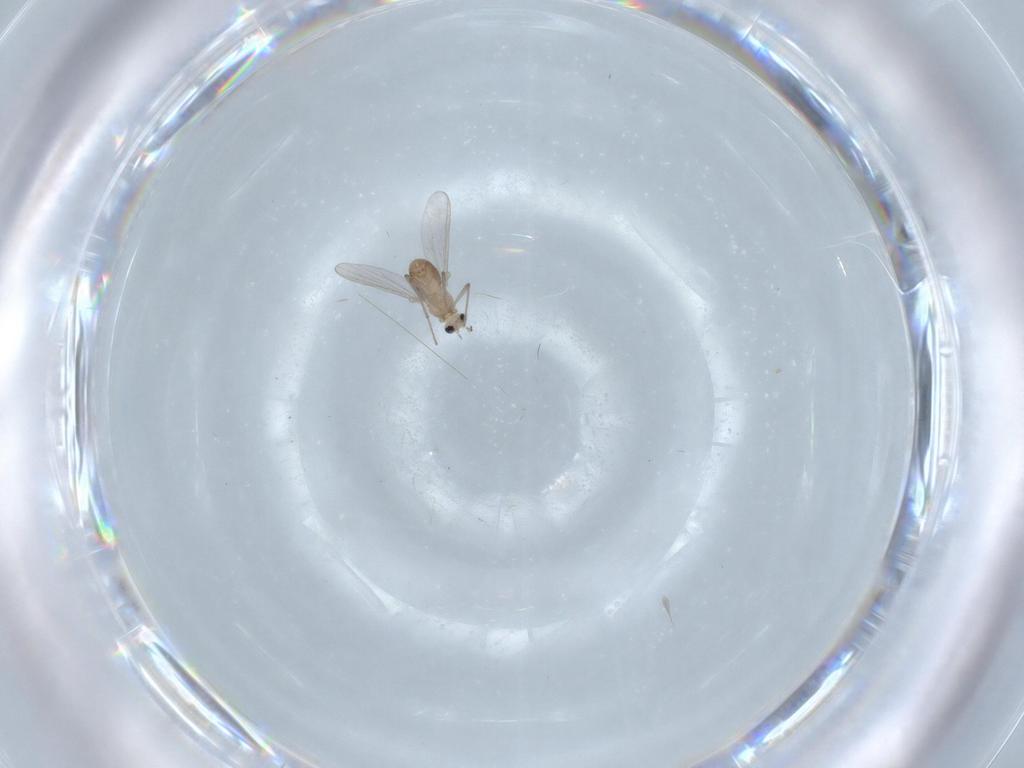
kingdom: Animalia
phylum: Arthropoda
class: Insecta
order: Diptera
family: Chironomidae
